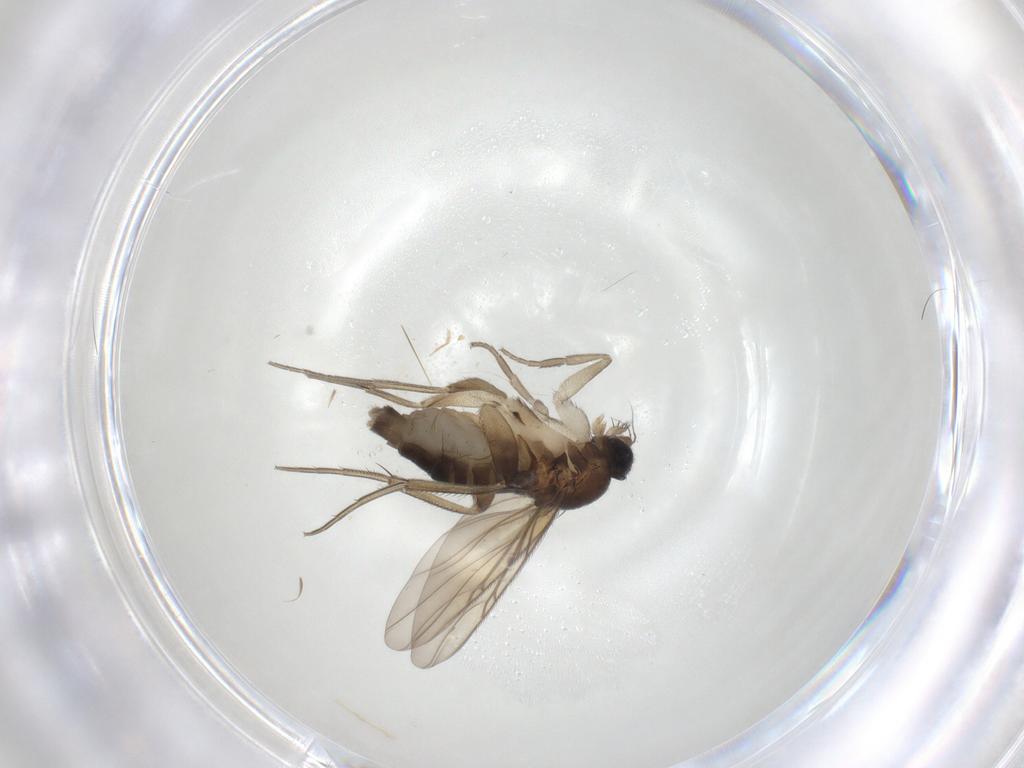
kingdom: Animalia
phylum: Arthropoda
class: Insecta
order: Diptera
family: Phoridae
